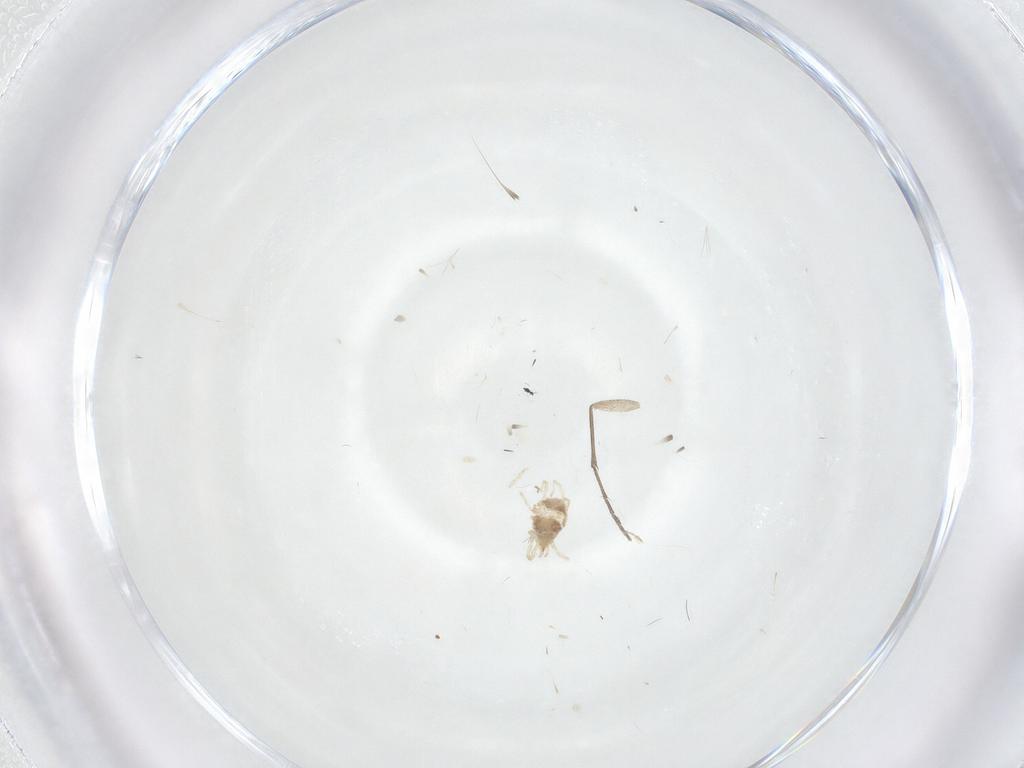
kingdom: Animalia
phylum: Arthropoda
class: Insecta
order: Diptera
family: Sciaridae
